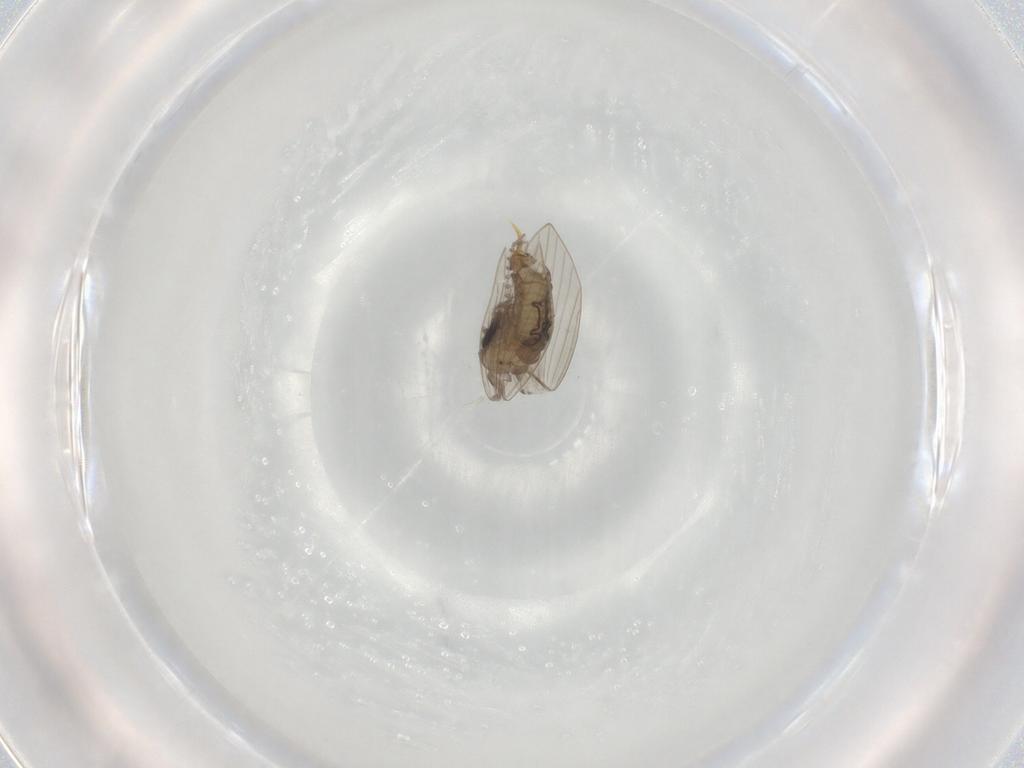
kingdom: Animalia
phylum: Arthropoda
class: Insecta
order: Diptera
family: Psychodidae
